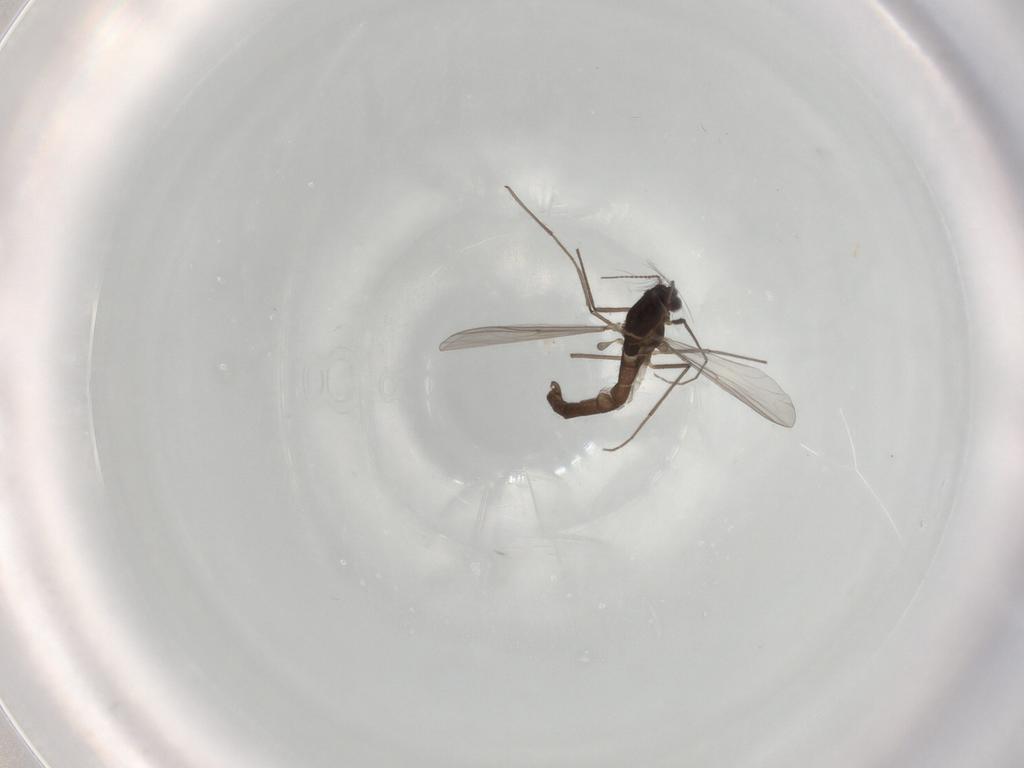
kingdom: Animalia
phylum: Arthropoda
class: Insecta
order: Diptera
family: Chironomidae
